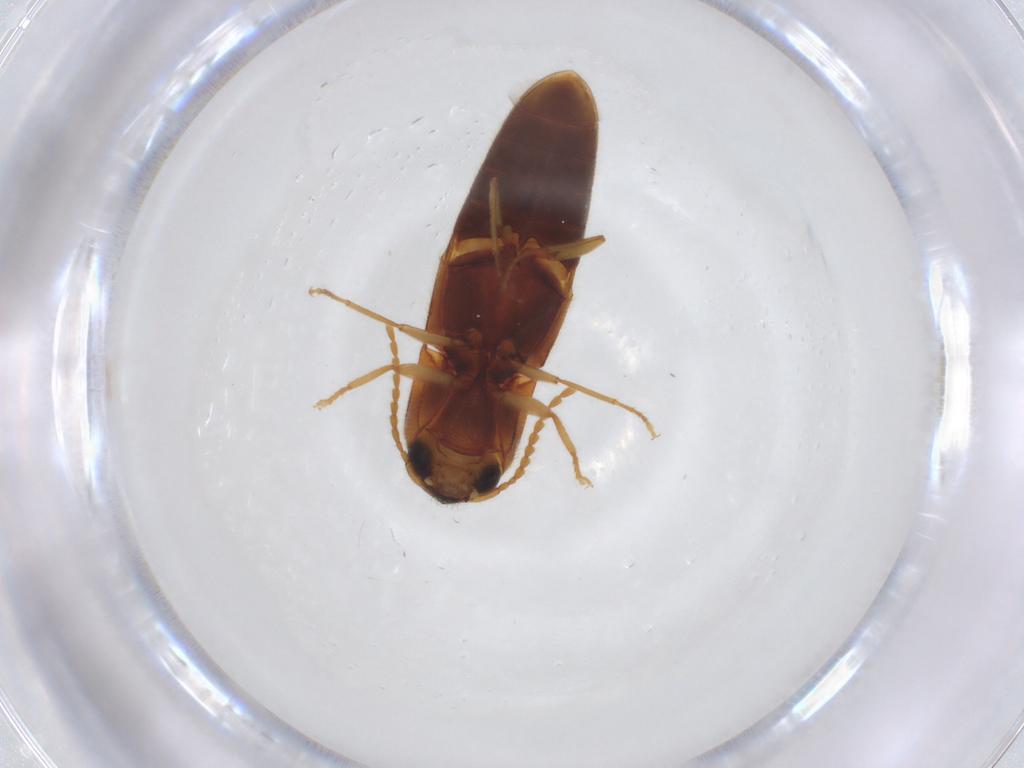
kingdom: Animalia
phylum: Arthropoda
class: Insecta
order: Coleoptera
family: Elateridae
